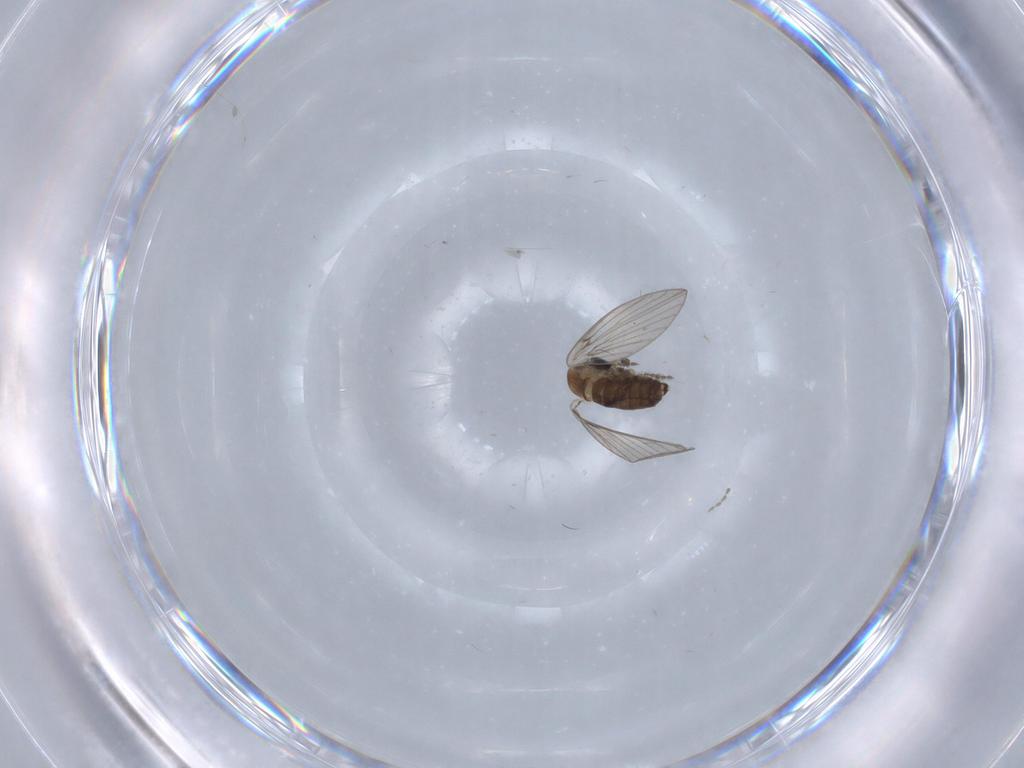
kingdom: Animalia
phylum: Arthropoda
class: Insecta
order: Diptera
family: Psychodidae
